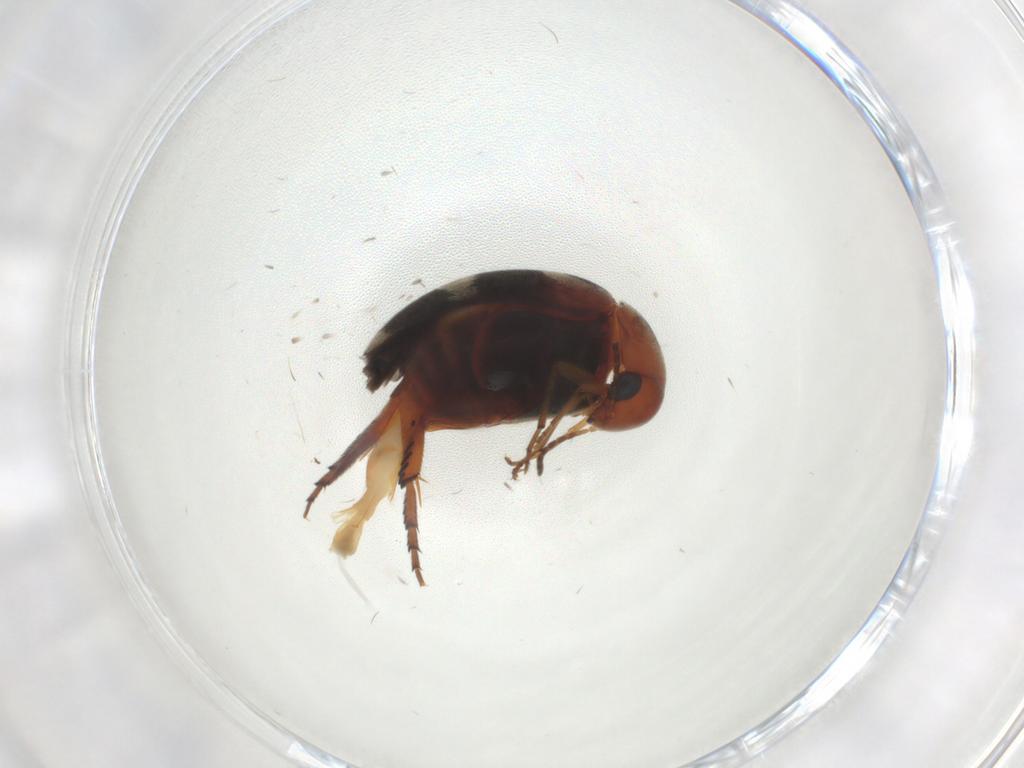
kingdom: Animalia
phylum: Arthropoda
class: Insecta
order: Coleoptera
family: Mordellidae
